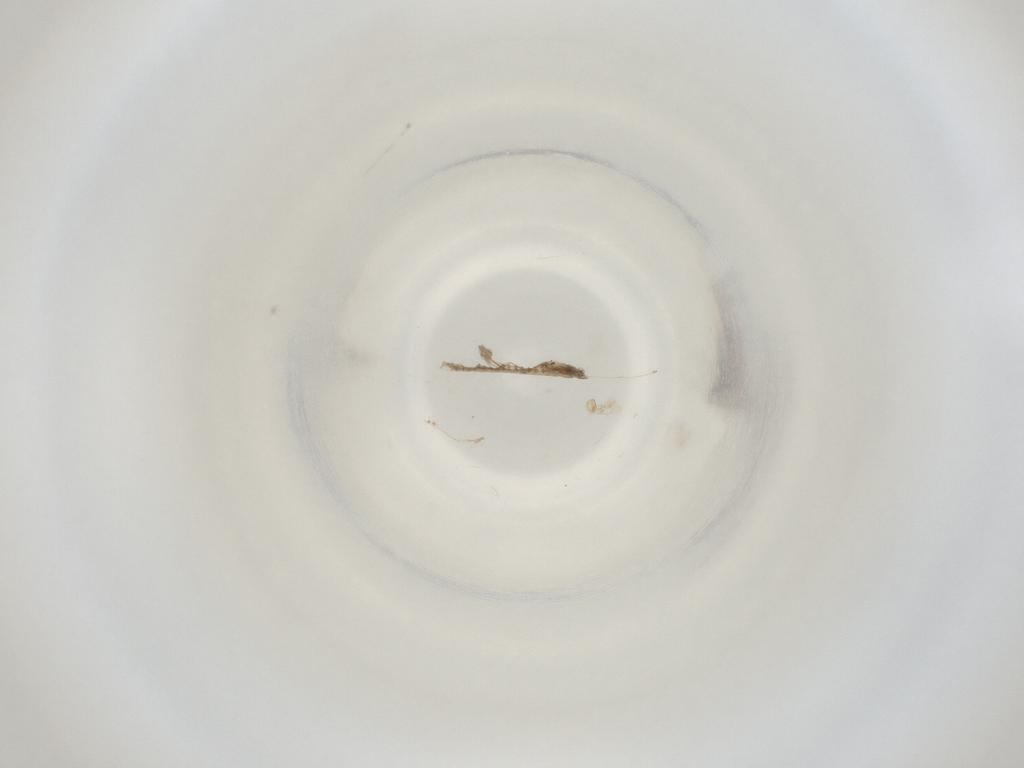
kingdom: Animalia
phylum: Arthropoda
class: Insecta
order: Diptera
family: Cecidomyiidae
